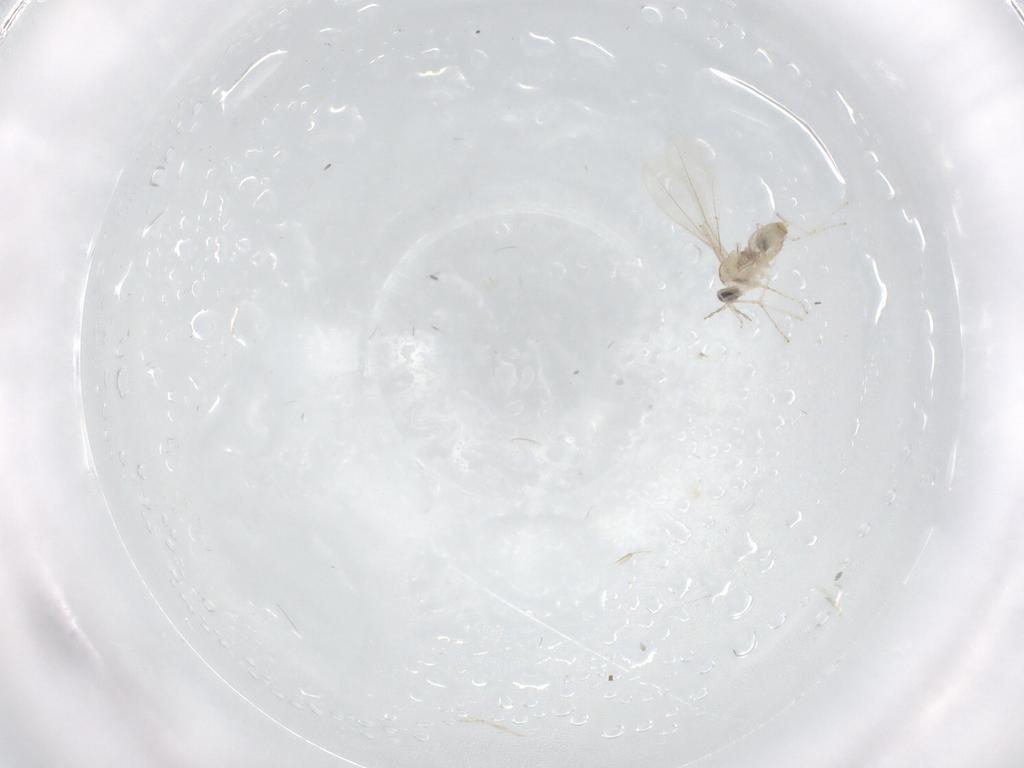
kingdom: Animalia
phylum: Arthropoda
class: Insecta
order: Diptera
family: Cecidomyiidae
